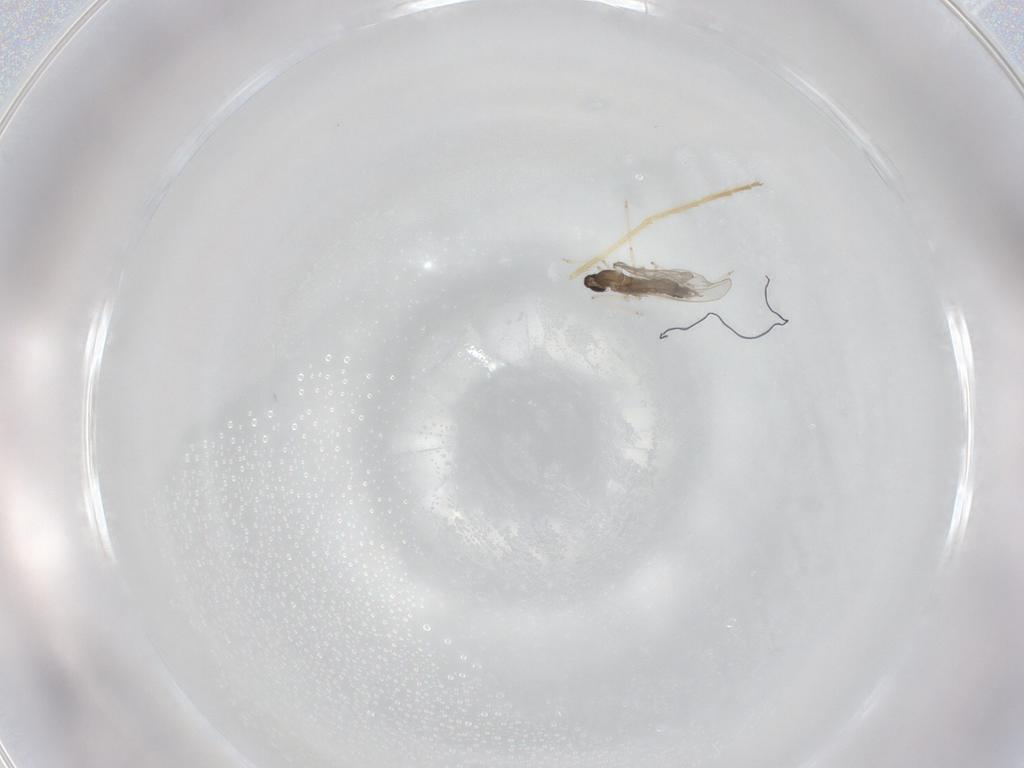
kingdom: Animalia
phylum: Arthropoda
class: Insecta
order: Diptera
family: Cecidomyiidae
